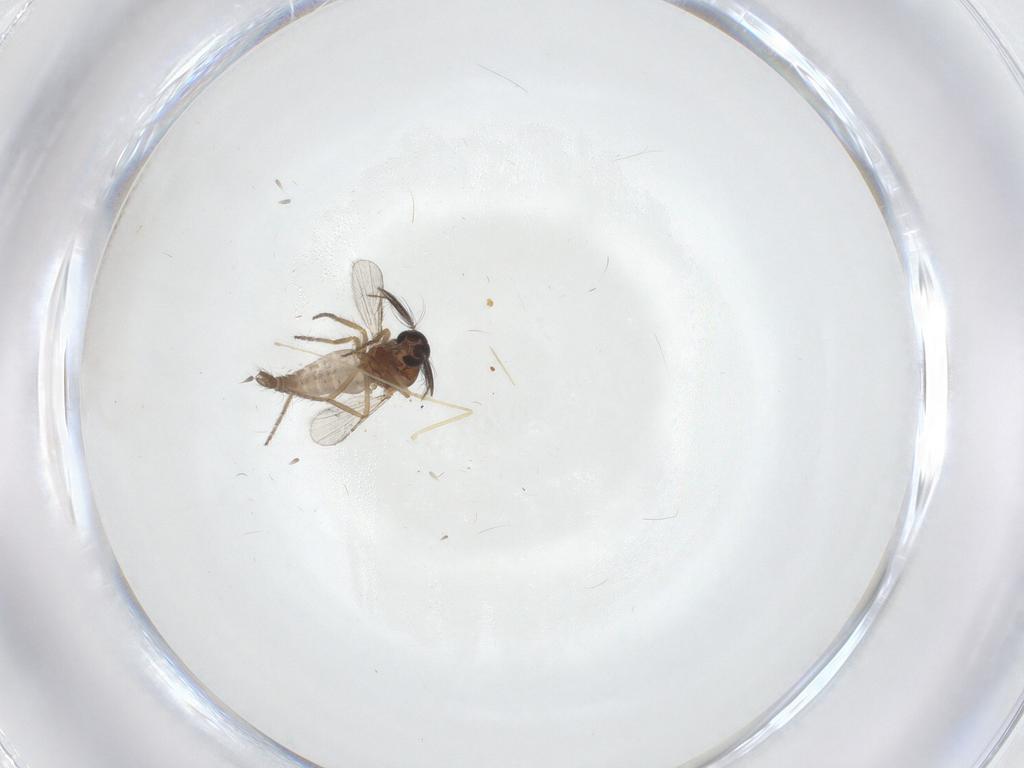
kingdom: Animalia
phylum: Arthropoda
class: Insecta
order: Diptera
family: Cecidomyiidae
